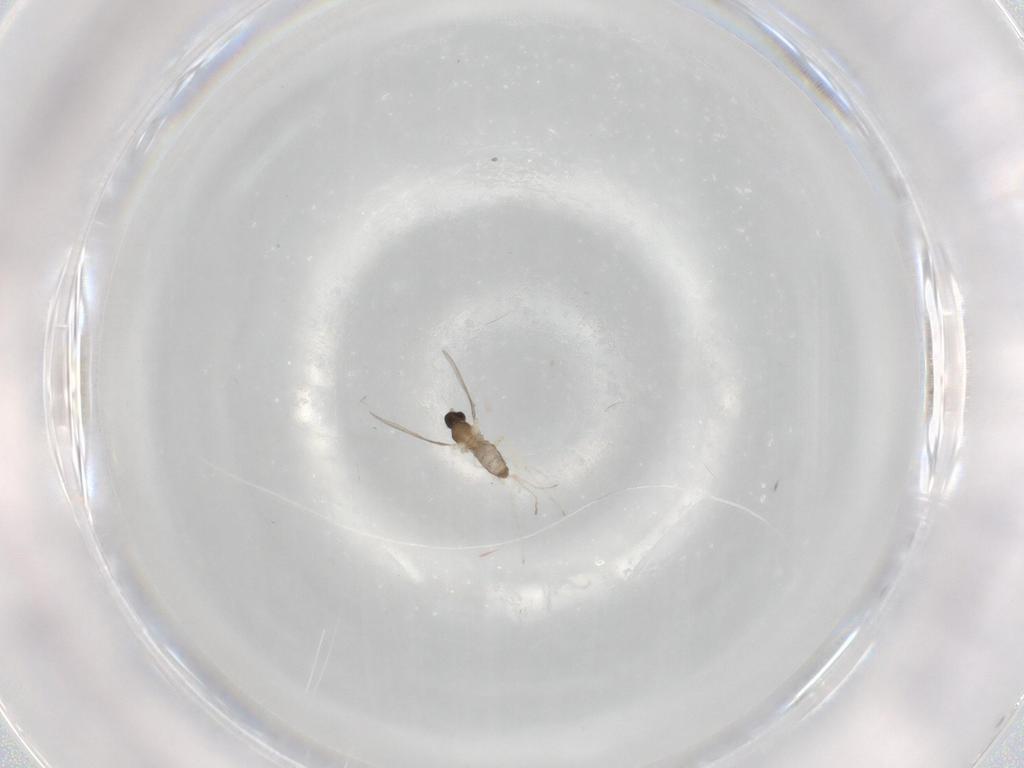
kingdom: Animalia
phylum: Arthropoda
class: Insecta
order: Diptera
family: Cecidomyiidae
